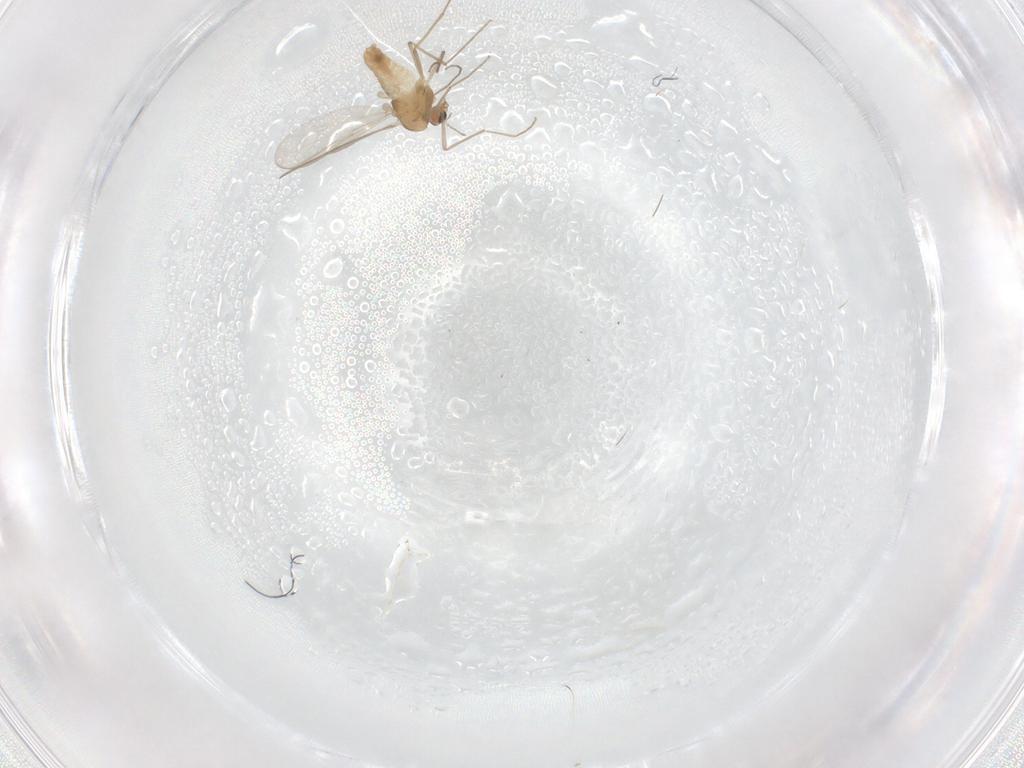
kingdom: Animalia
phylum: Arthropoda
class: Insecta
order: Diptera
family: Chironomidae
